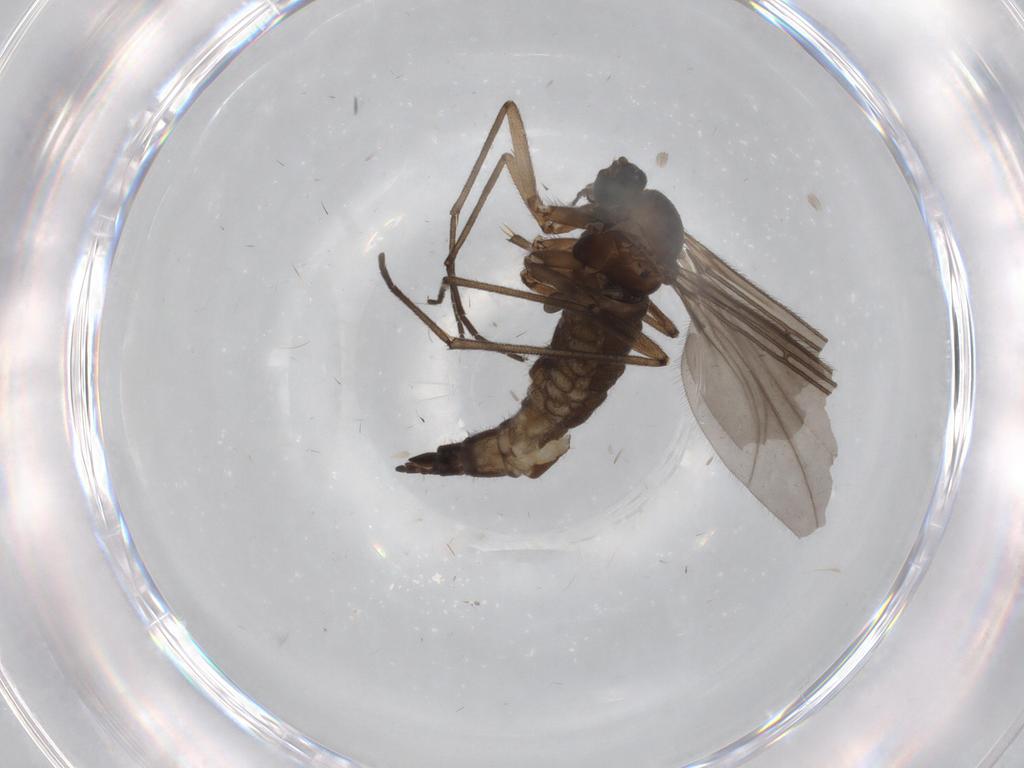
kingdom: Animalia
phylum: Arthropoda
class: Insecta
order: Diptera
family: Sciaridae
